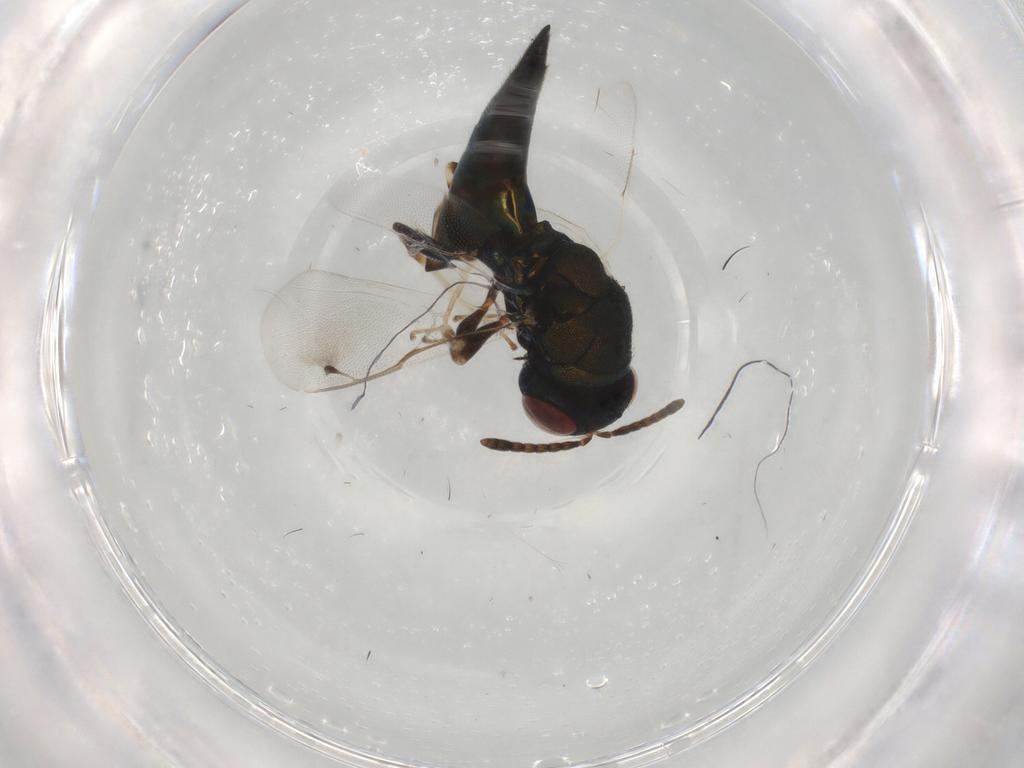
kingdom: Animalia
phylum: Arthropoda
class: Insecta
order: Hymenoptera
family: Pteromalidae
